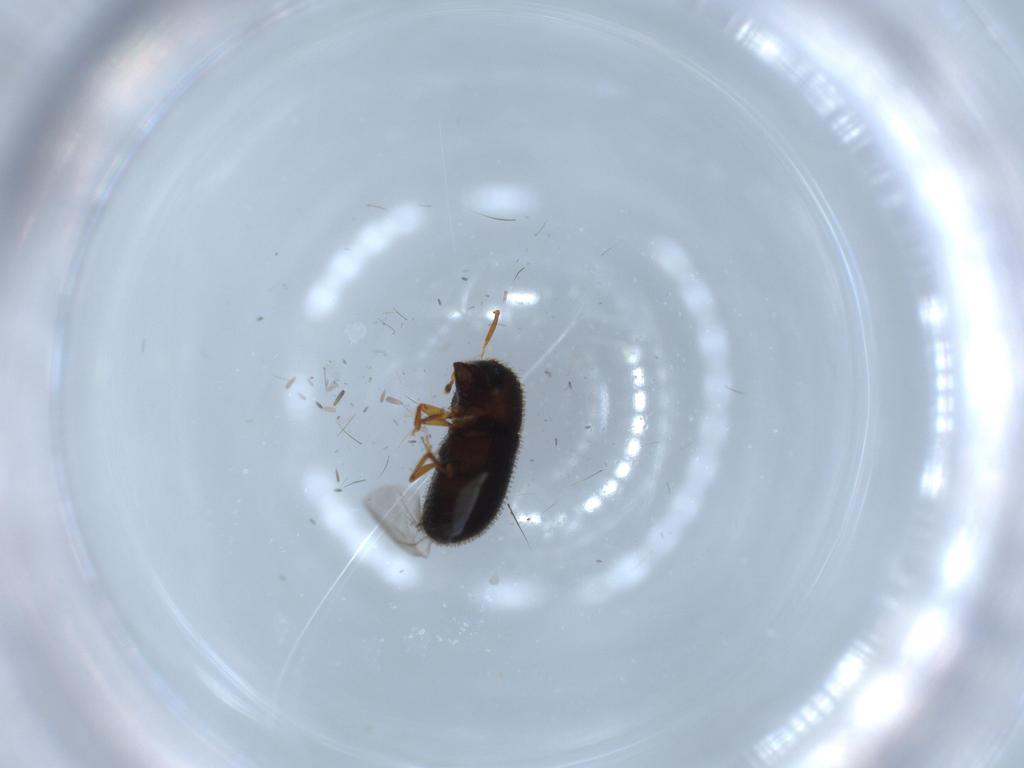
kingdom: Animalia
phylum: Arthropoda
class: Insecta
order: Coleoptera
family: Curculionidae
